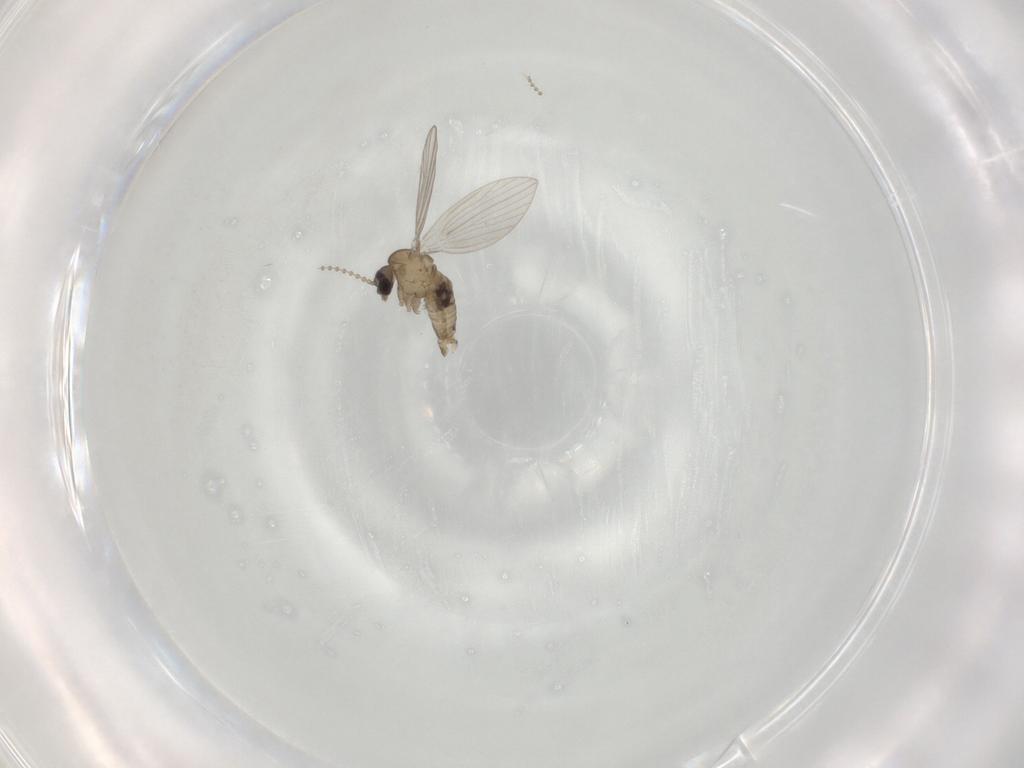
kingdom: Animalia
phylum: Arthropoda
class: Insecta
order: Diptera
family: Psychodidae
